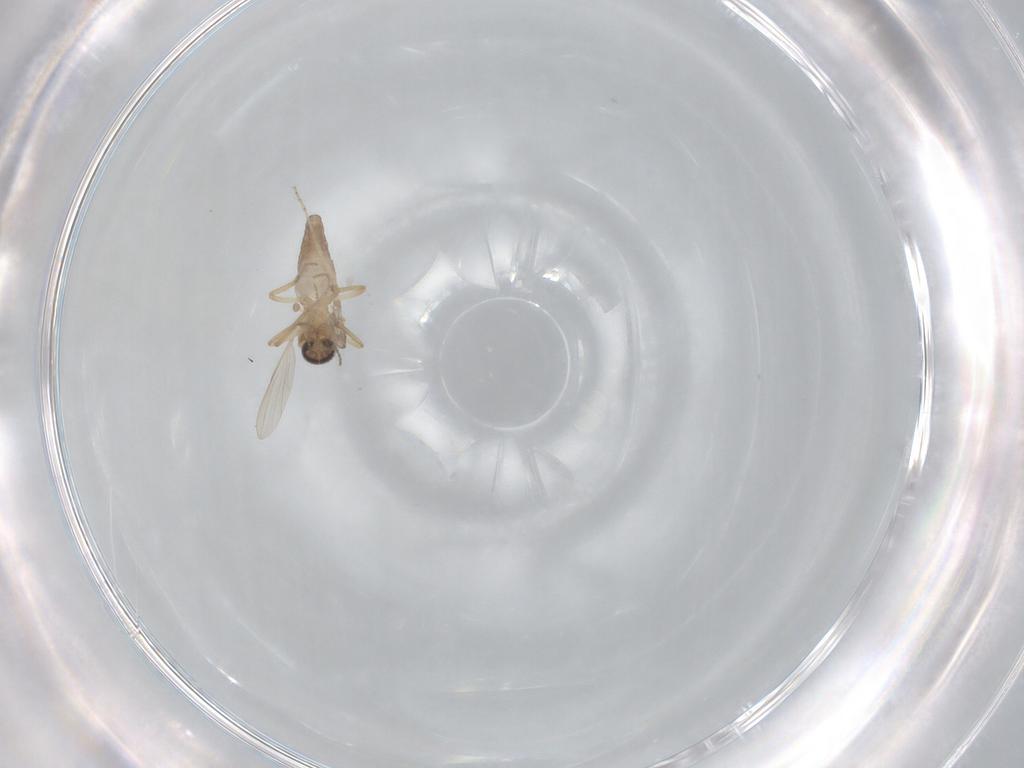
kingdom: Animalia
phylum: Arthropoda
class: Insecta
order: Diptera
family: Ceratopogonidae
